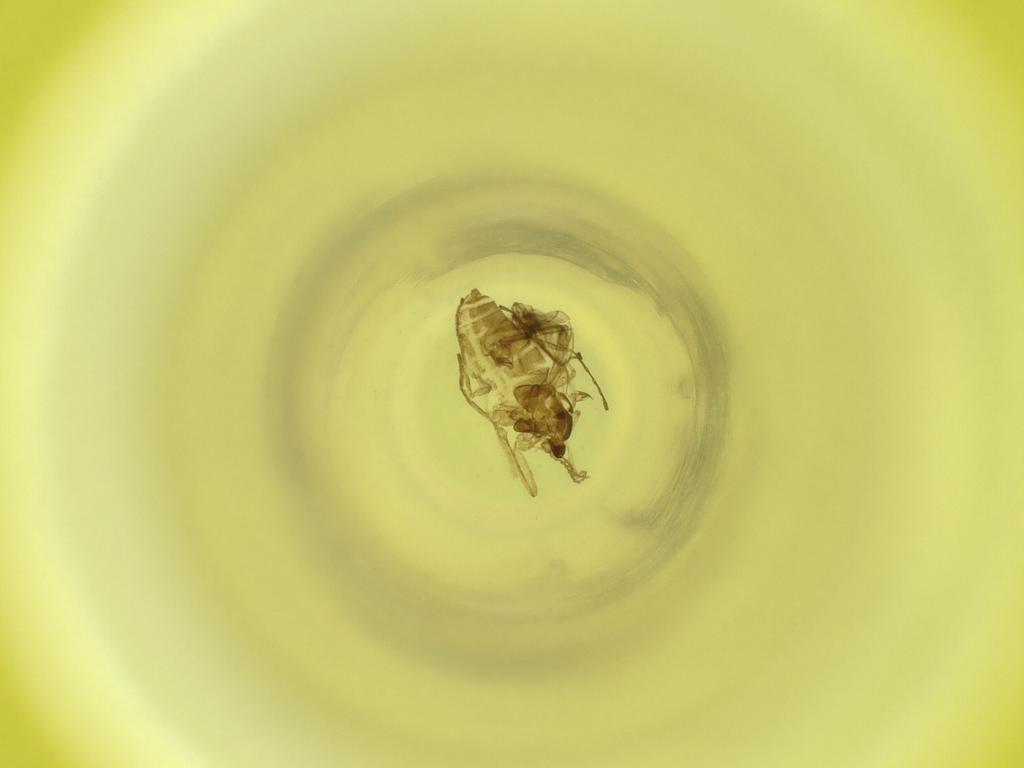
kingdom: Animalia
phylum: Arthropoda
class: Insecta
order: Diptera
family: Cecidomyiidae
